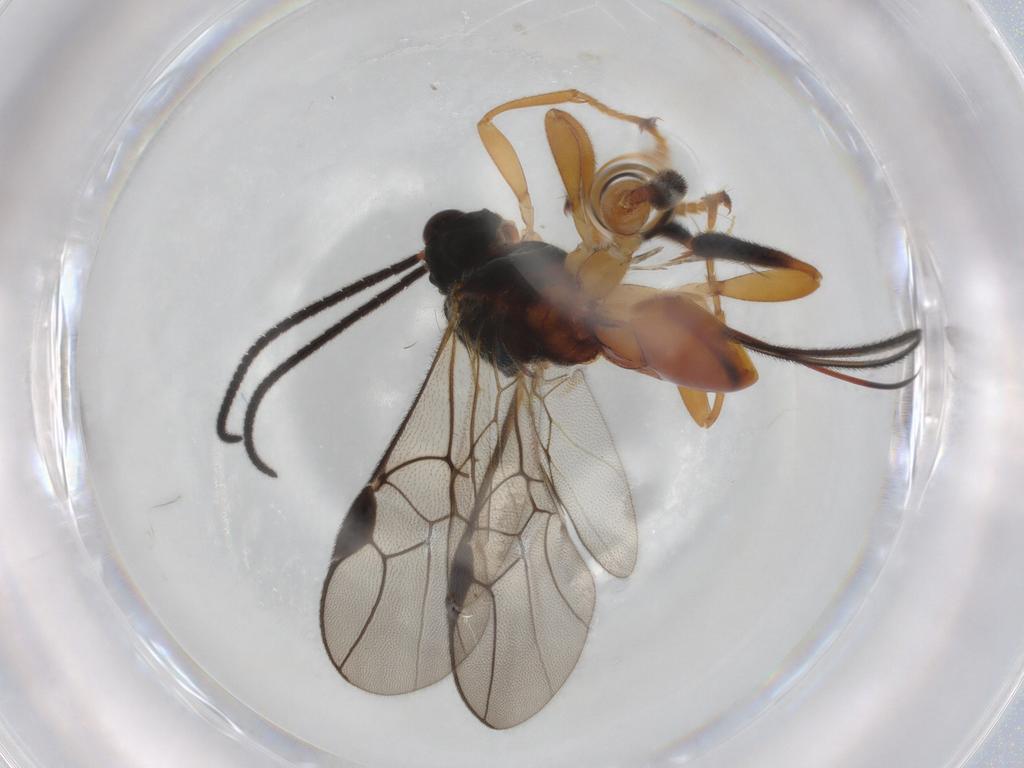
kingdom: Animalia
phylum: Arthropoda
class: Insecta
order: Hymenoptera
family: Braconidae
